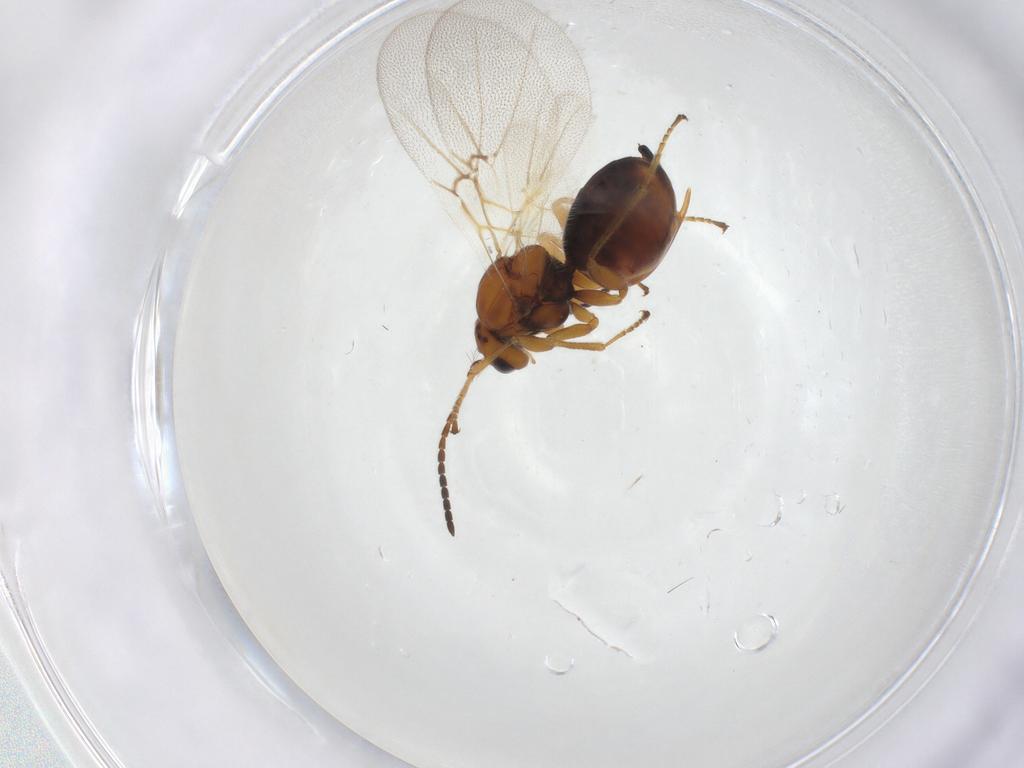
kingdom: Animalia
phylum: Arthropoda
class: Insecta
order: Hymenoptera
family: Cynipidae
